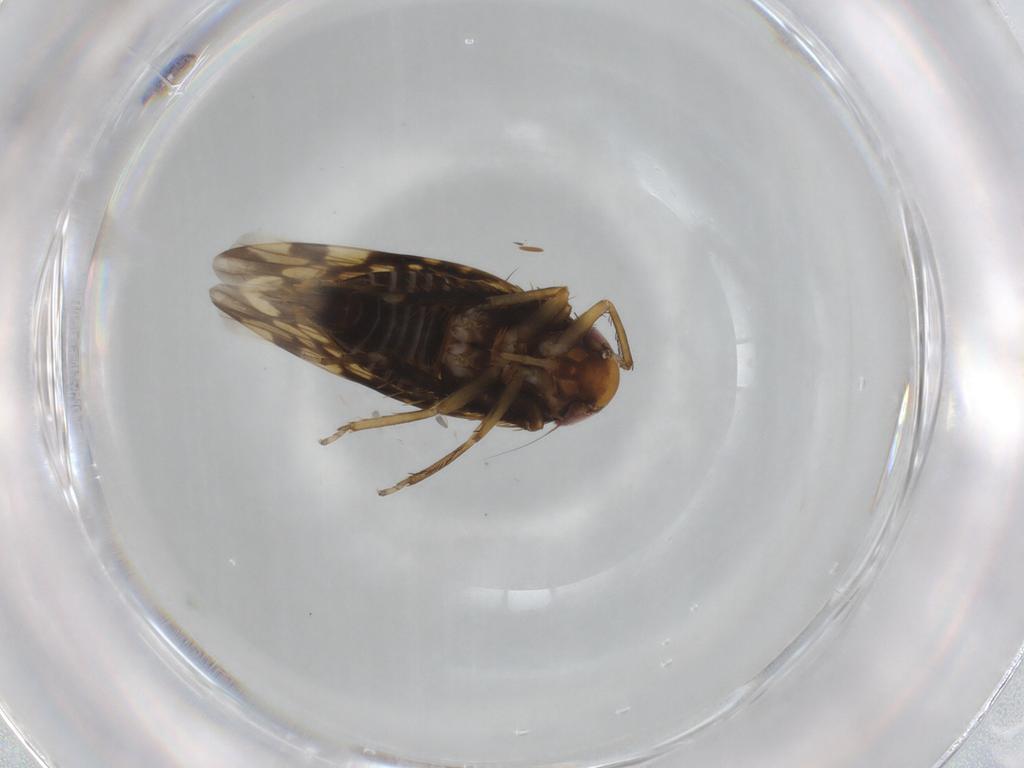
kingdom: Animalia
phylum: Arthropoda
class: Insecta
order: Hemiptera
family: Cicadellidae
